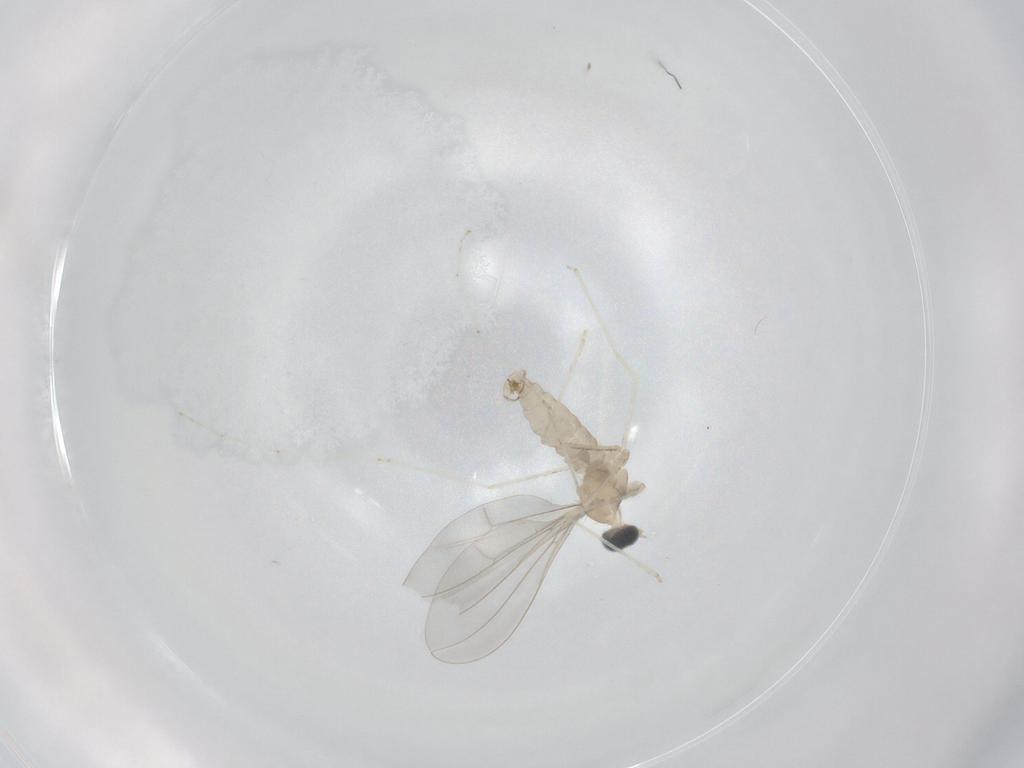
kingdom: Animalia
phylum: Arthropoda
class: Insecta
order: Diptera
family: Cecidomyiidae
